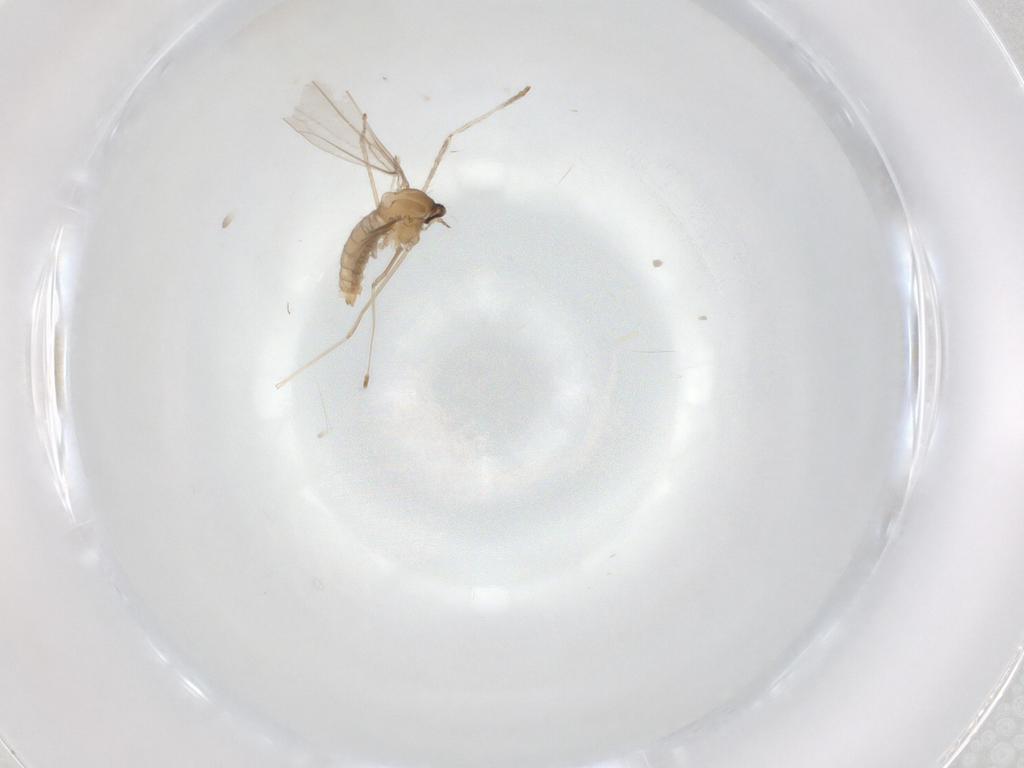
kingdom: Animalia
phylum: Arthropoda
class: Insecta
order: Diptera
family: Cecidomyiidae
